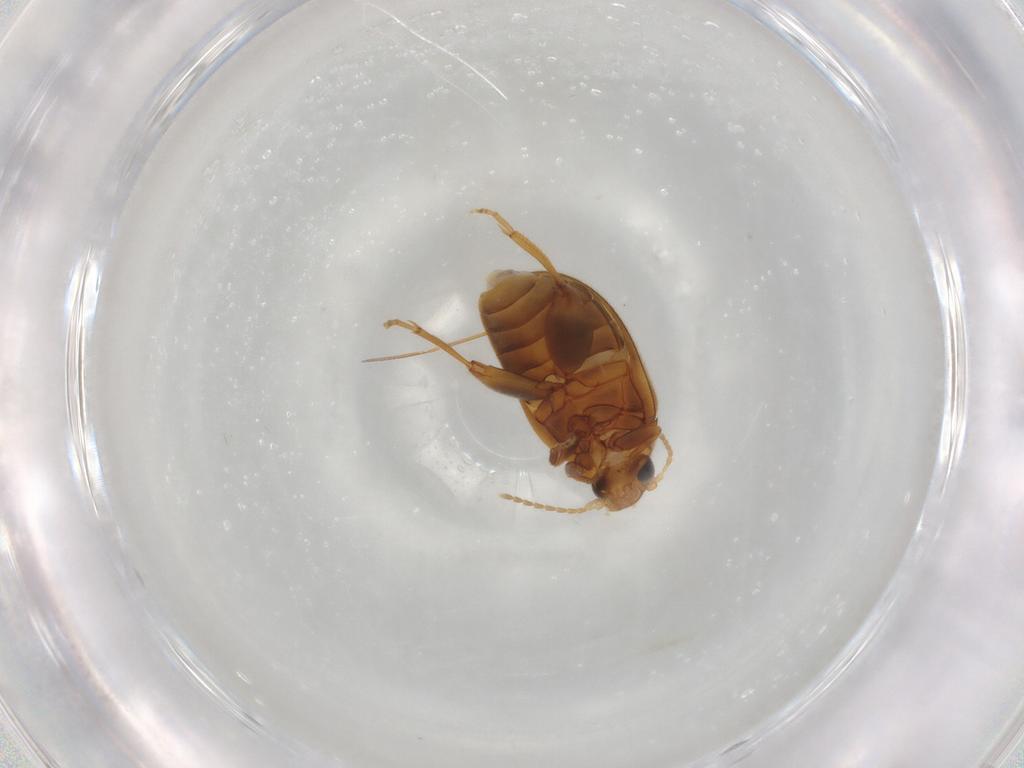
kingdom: Animalia
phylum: Arthropoda
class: Insecta
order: Coleoptera
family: Scirtidae
